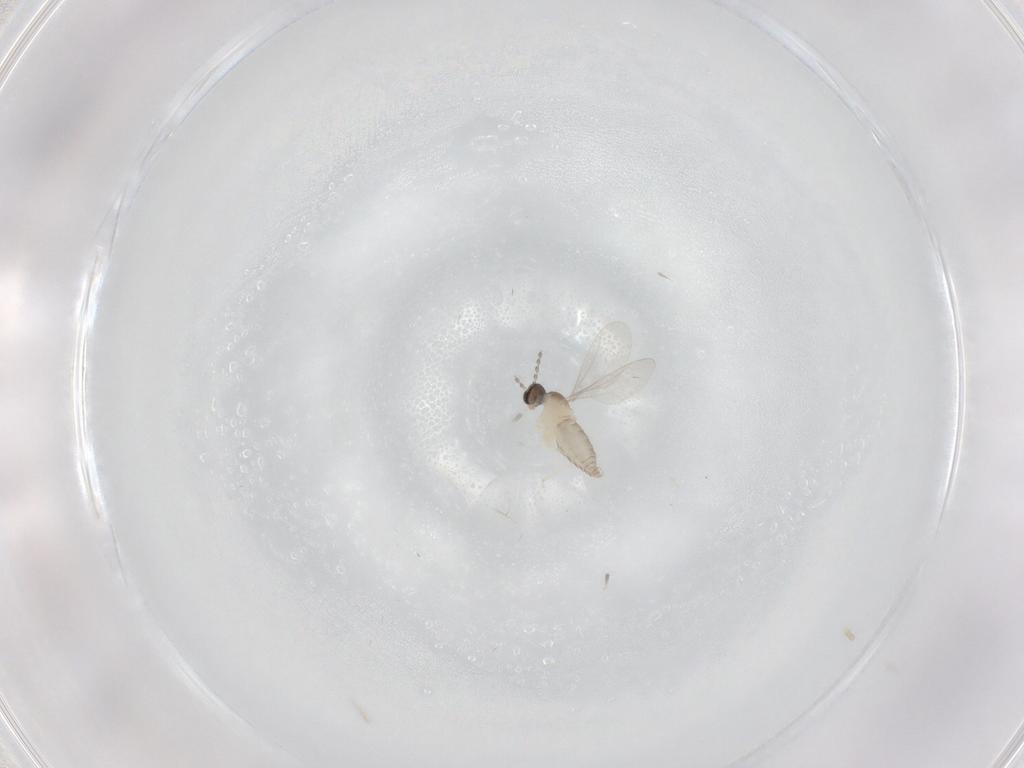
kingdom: Animalia
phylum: Arthropoda
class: Insecta
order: Diptera
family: Cecidomyiidae
